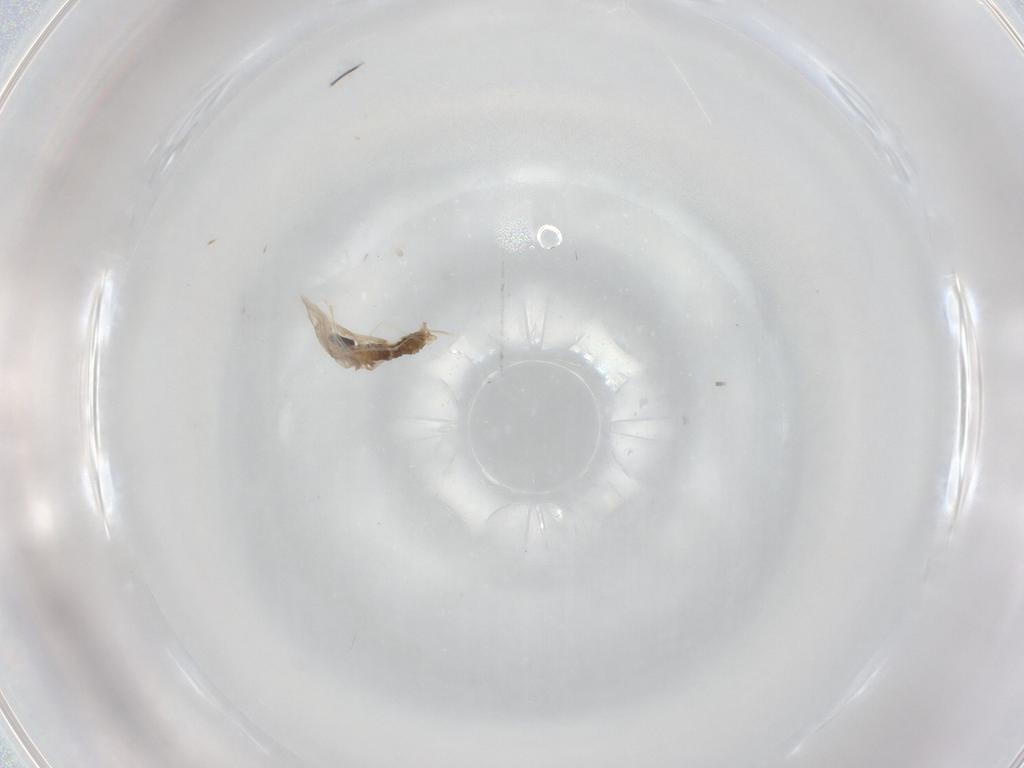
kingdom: Animalia
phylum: Arthropoda
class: Insecta
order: Diptera
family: Cecidomyiidae
